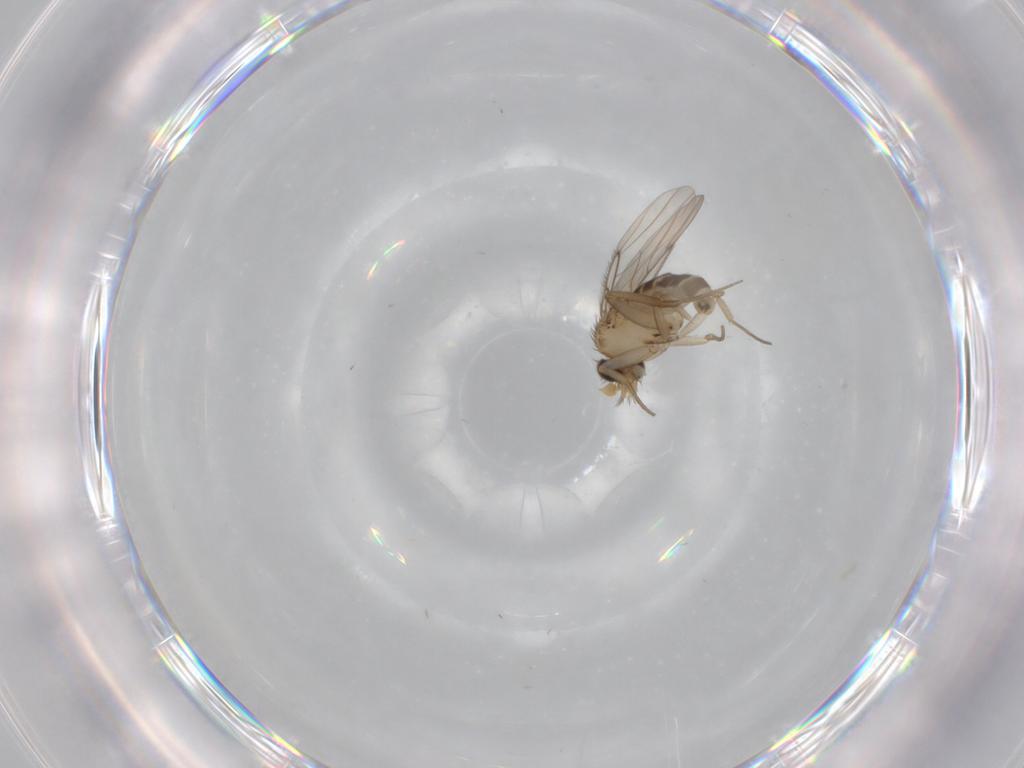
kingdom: Animalia
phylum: Arthropoda
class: Insecta
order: Diptera
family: Phoridae
